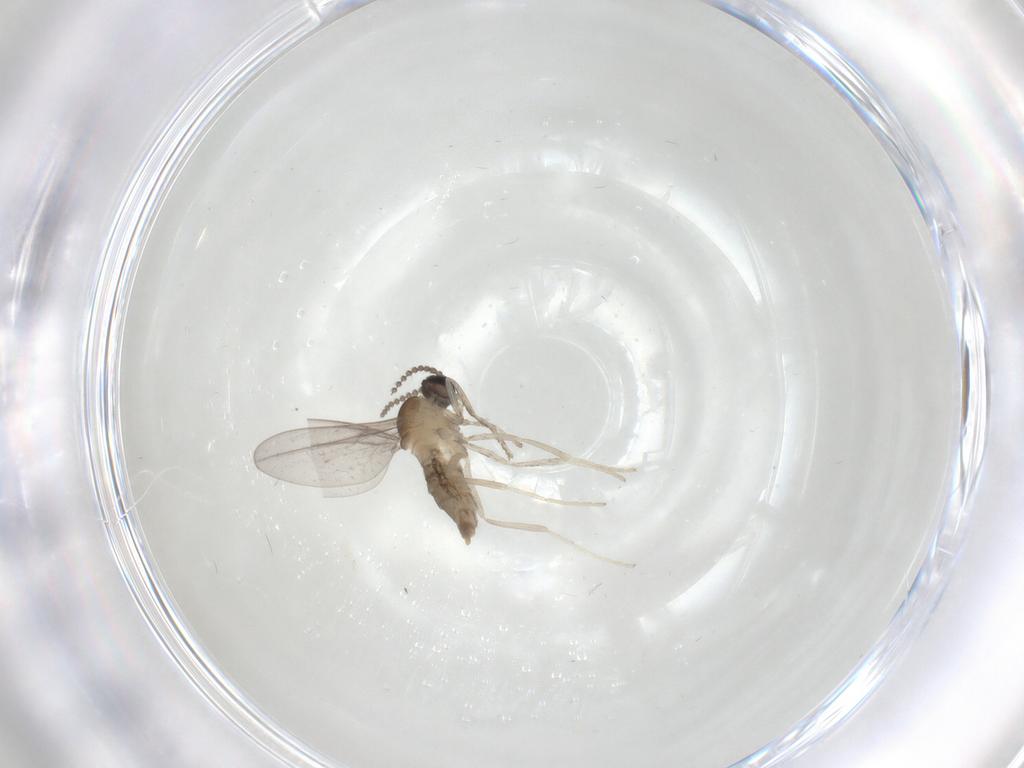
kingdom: Animalia
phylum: Arthropoda
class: Insecta
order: Diptera
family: Cecidomyiidae
